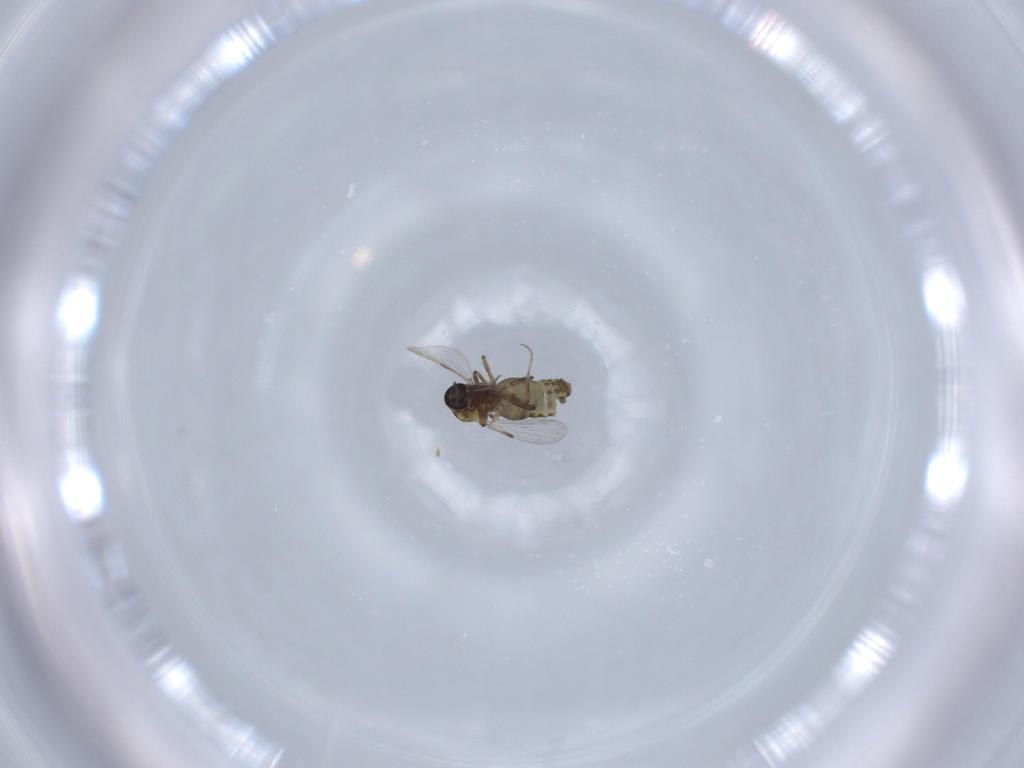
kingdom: Animalia
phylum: Arthropoda
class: Insecta
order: Diptera
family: Ceratopogonidae
